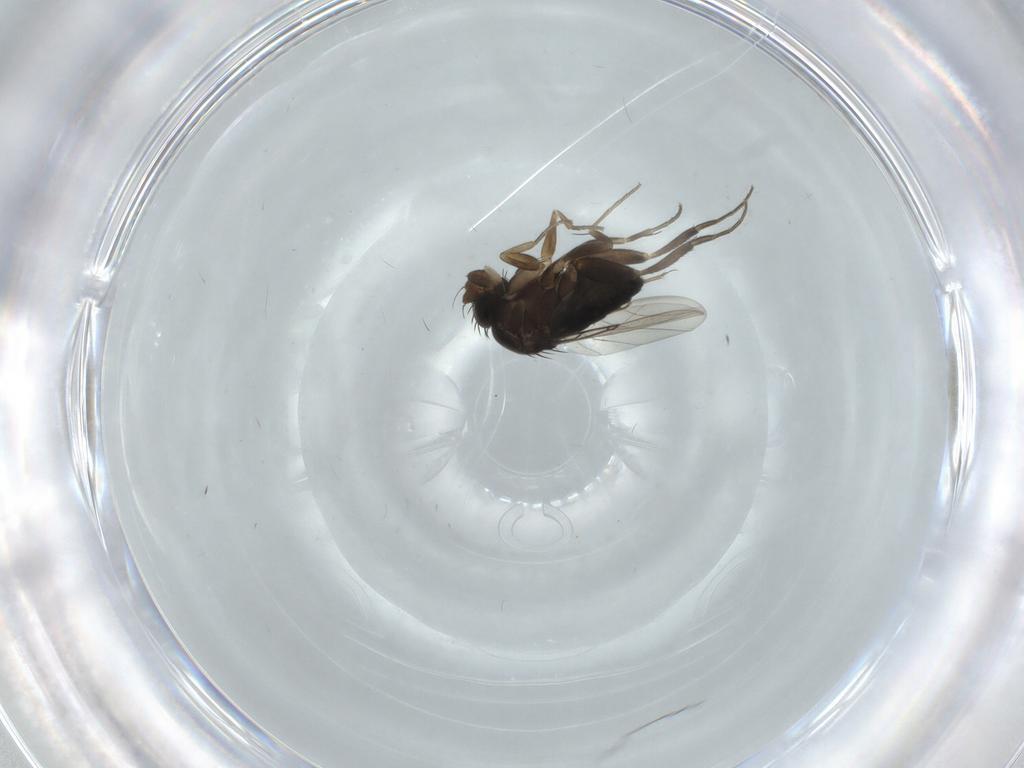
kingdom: Animalia
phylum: Arthropoda
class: Insecta
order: Diptera
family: Phoridae
